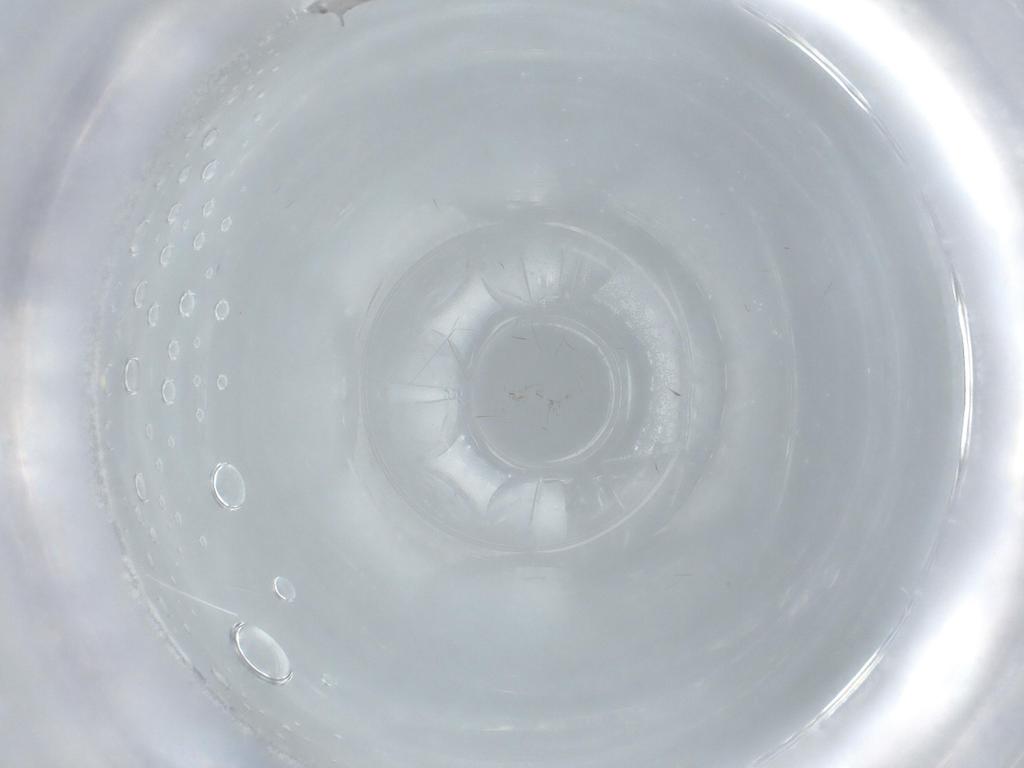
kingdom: Animalia
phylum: Arthropoda
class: Insecta
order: Diptera
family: Cecidomyiidae
